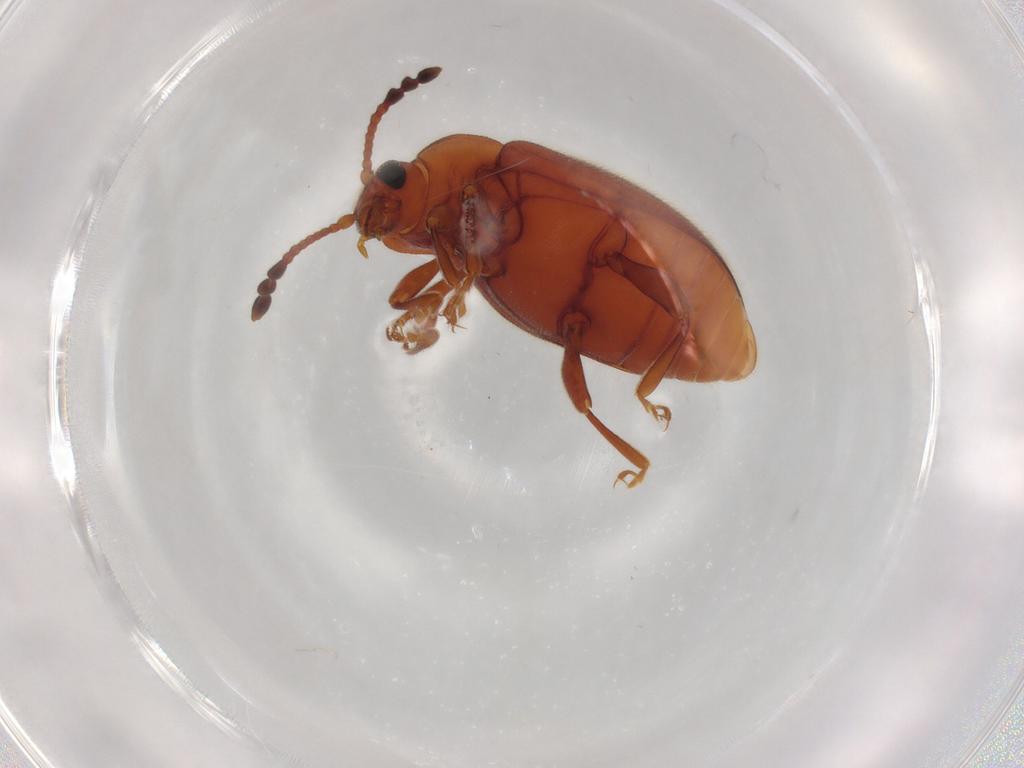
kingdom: Animalia
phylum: Arthropoda
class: Insecta
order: Coleoptera
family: Endomychidae
